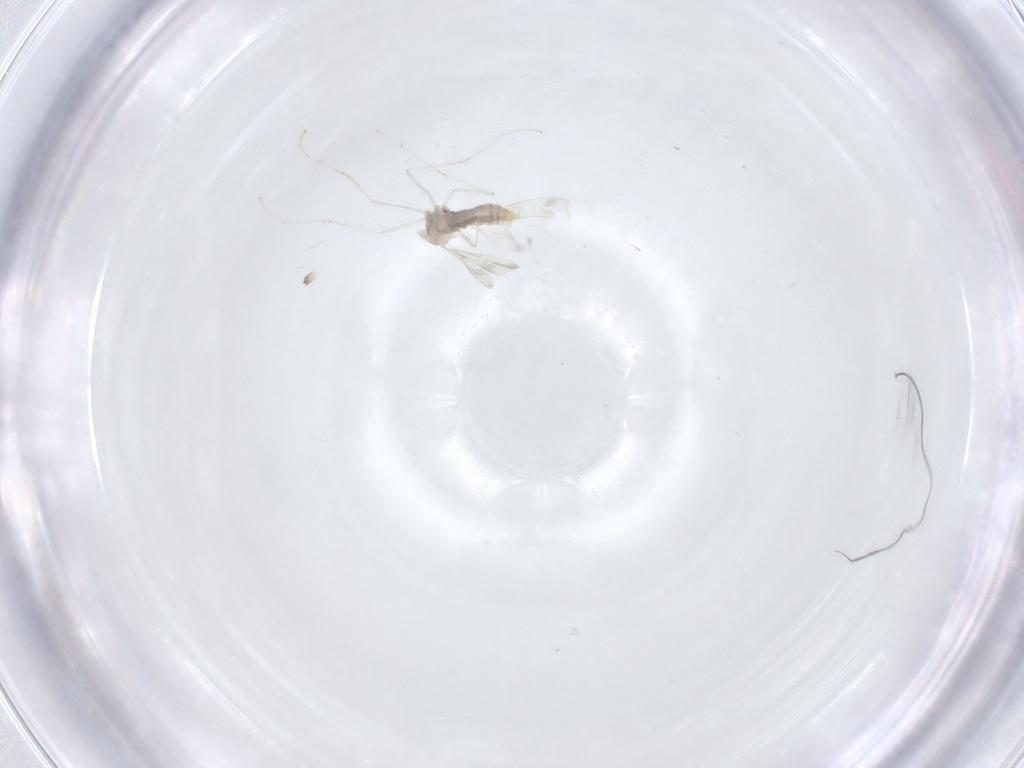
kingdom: Animalia
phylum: Arthropoda
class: Insecta
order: Diptera
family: Cecidomyiidae
